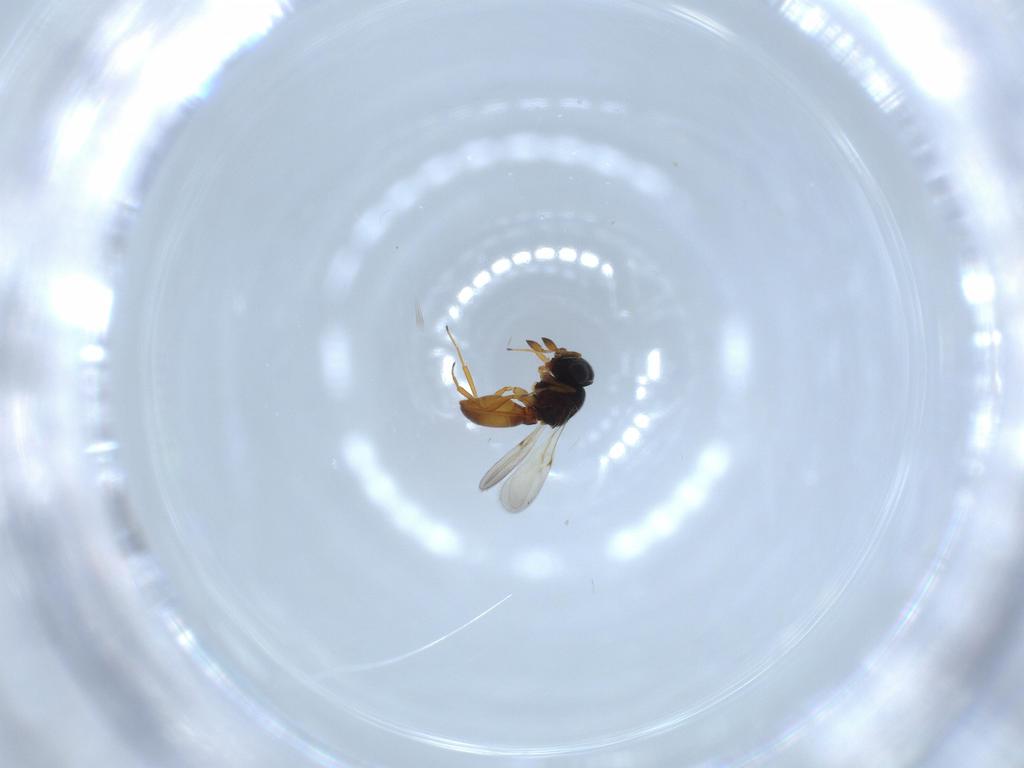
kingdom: Animalia
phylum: Arthropoda
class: Insecta
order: Hymenoptera
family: Scelionidae
